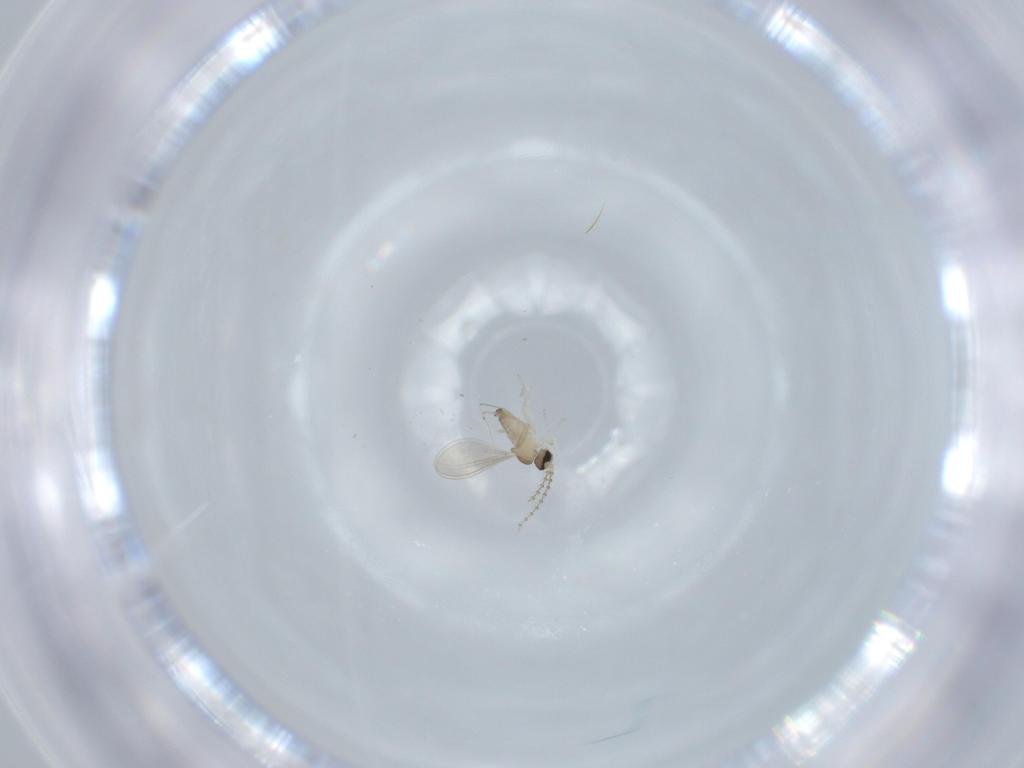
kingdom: Animalia
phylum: Arthropoda
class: Insecta
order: Diptera
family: Cecidomyiidae
